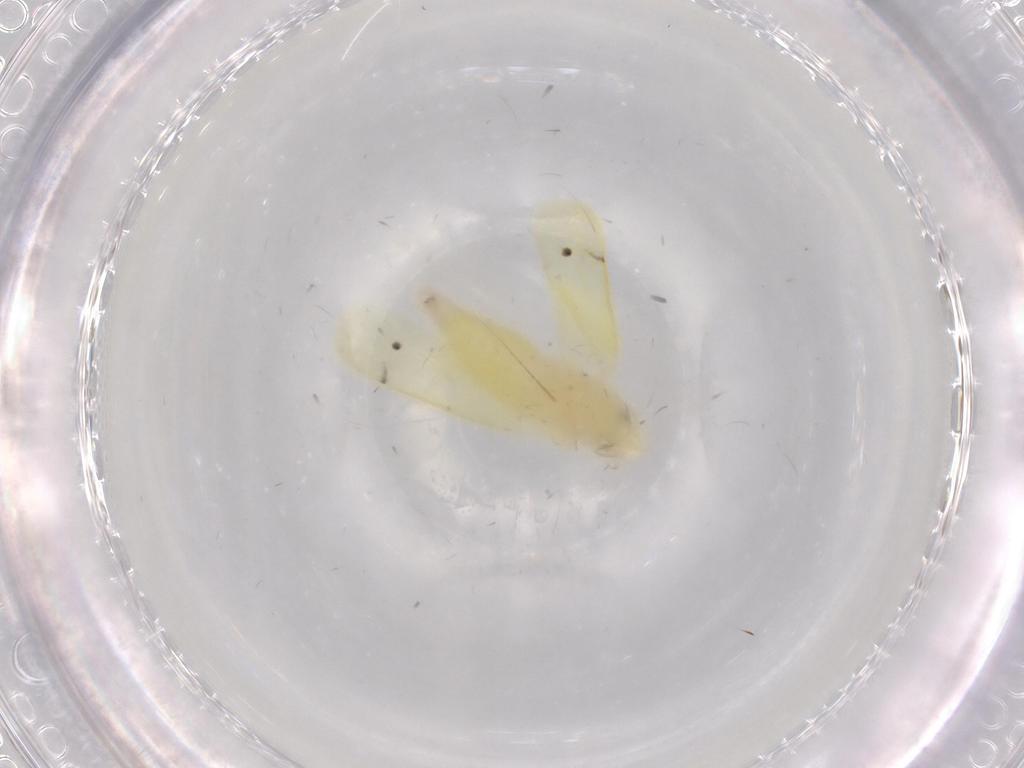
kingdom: Animalia
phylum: Arthropoda
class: Insecta
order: Hemiptera
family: Cicadellidae
